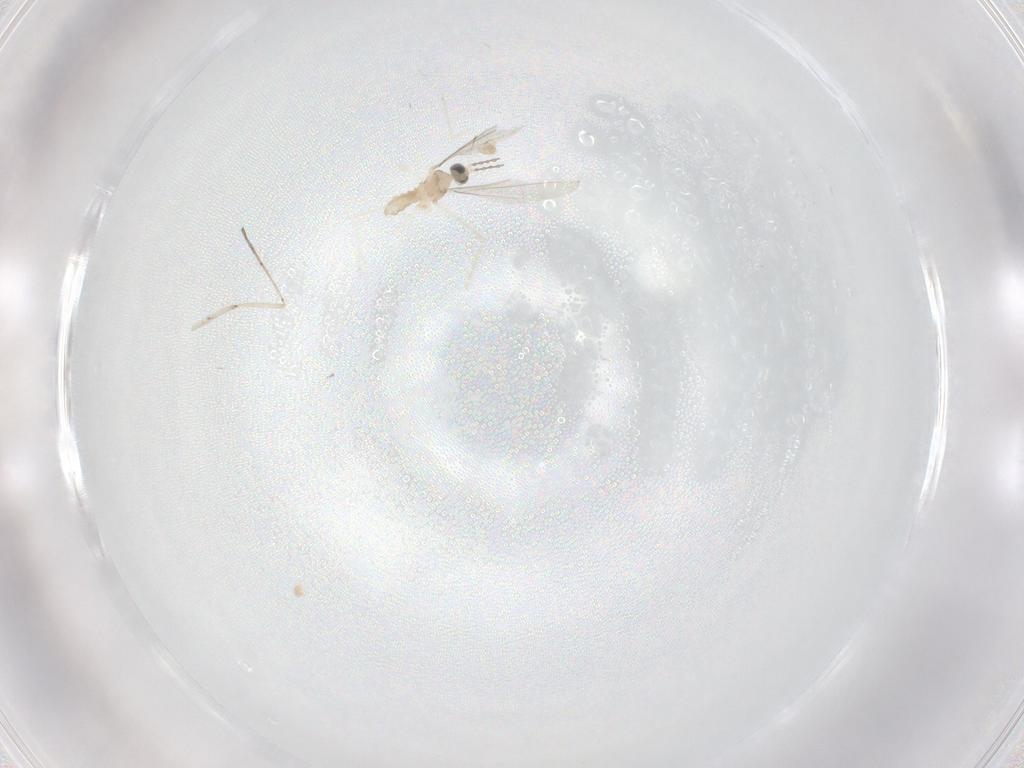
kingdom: Animalia
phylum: Arthropoda
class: Insecta
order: Diptera
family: Cecidomyiidae
